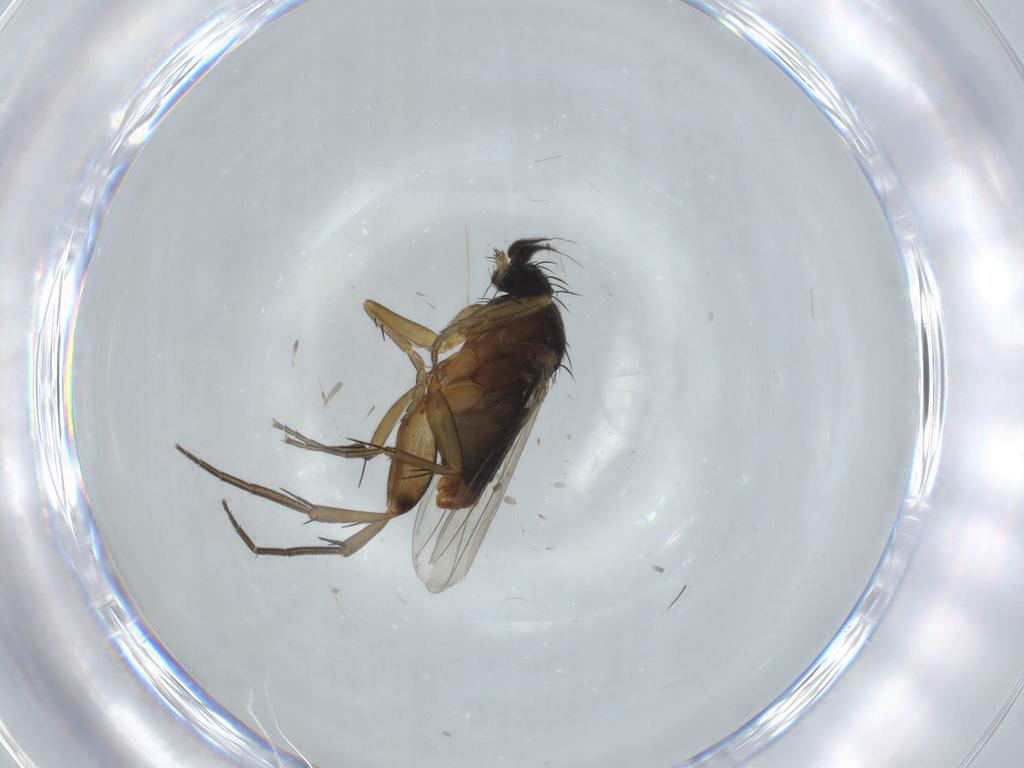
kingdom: Animalia
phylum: Arthropoda
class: Insecta
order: Diptera
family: Phoridae
